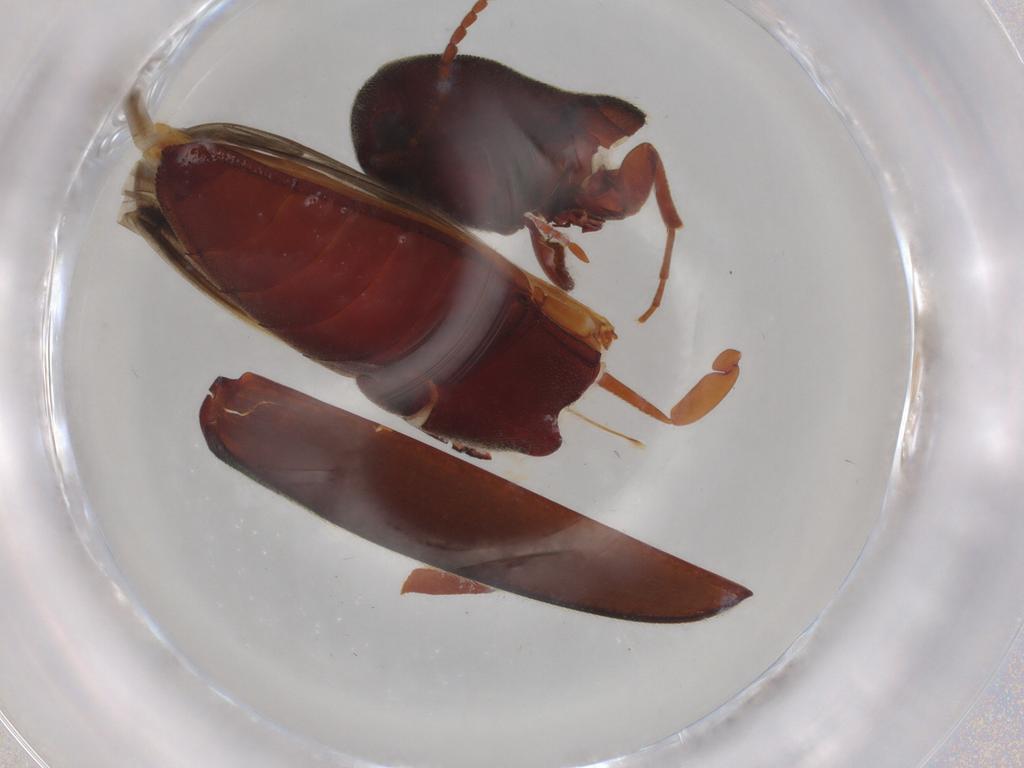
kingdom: Animalia
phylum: Arthropoda
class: Insecta
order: Coleoptera
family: Eucnemidae
